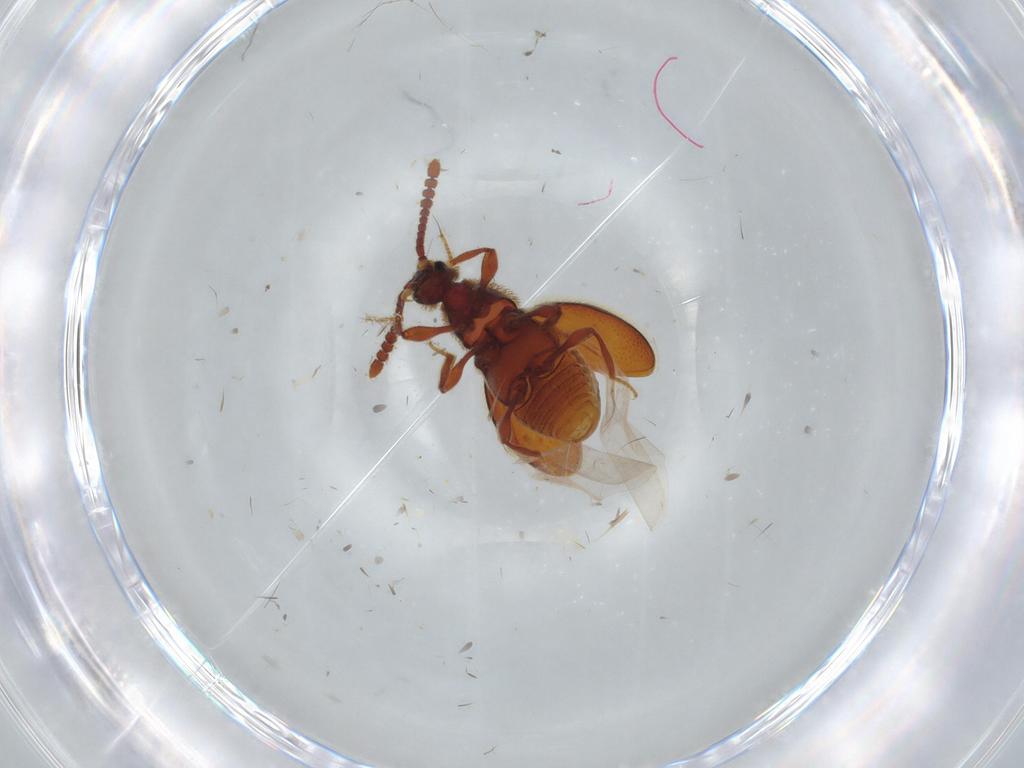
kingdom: Animalia
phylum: Arthropoda
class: Insecta
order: Coleoptera
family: Staphylinidae
